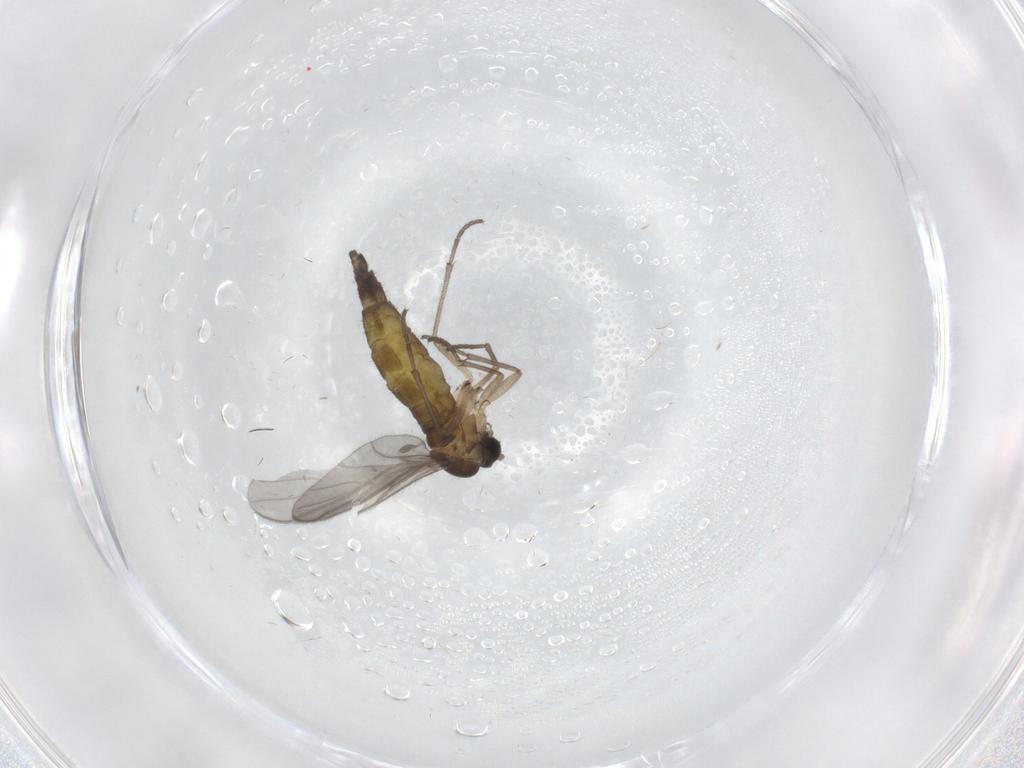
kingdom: Animalia
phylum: Arthropoda
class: Insecta
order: Diptera
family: Sciaridae
